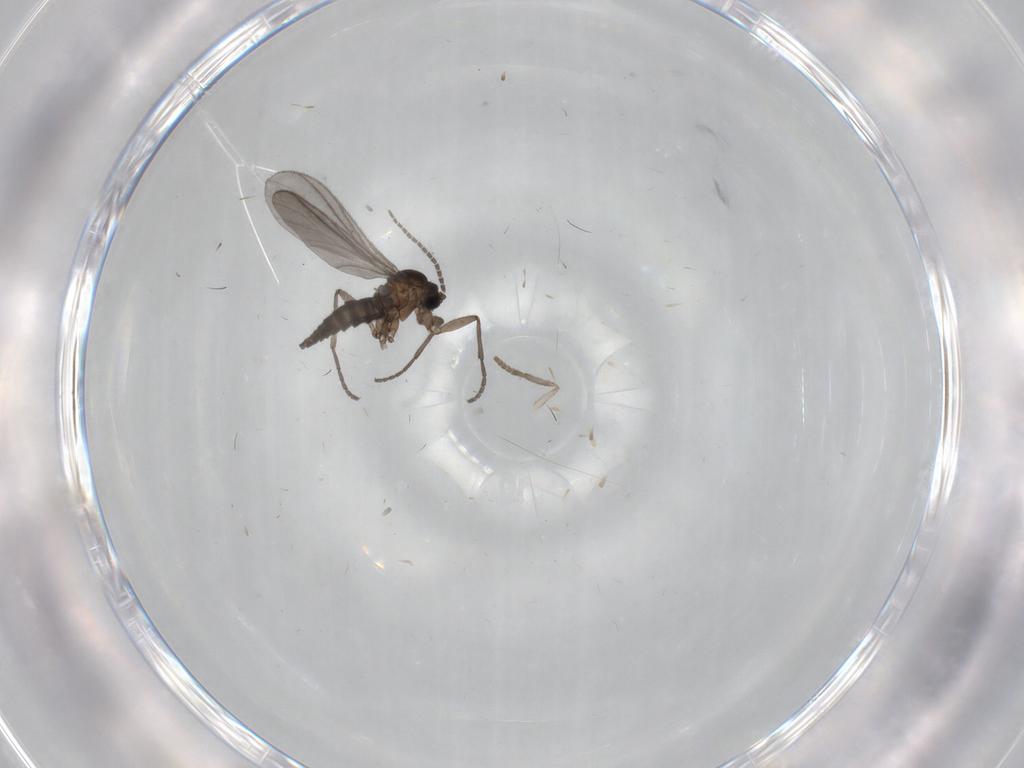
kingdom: Animalia
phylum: Arthropoda
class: Insecta
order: Diptera
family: Sciaridae
